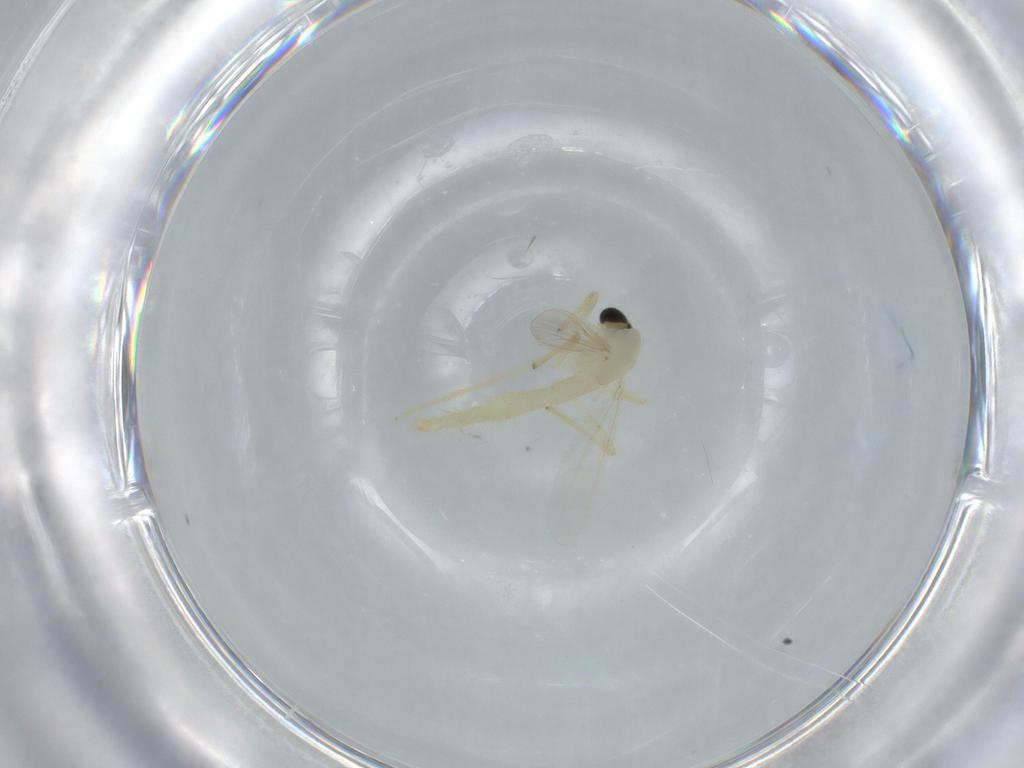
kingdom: Animalia
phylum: Arthropoda
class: Insecta
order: Diptera
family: Chironomidae
